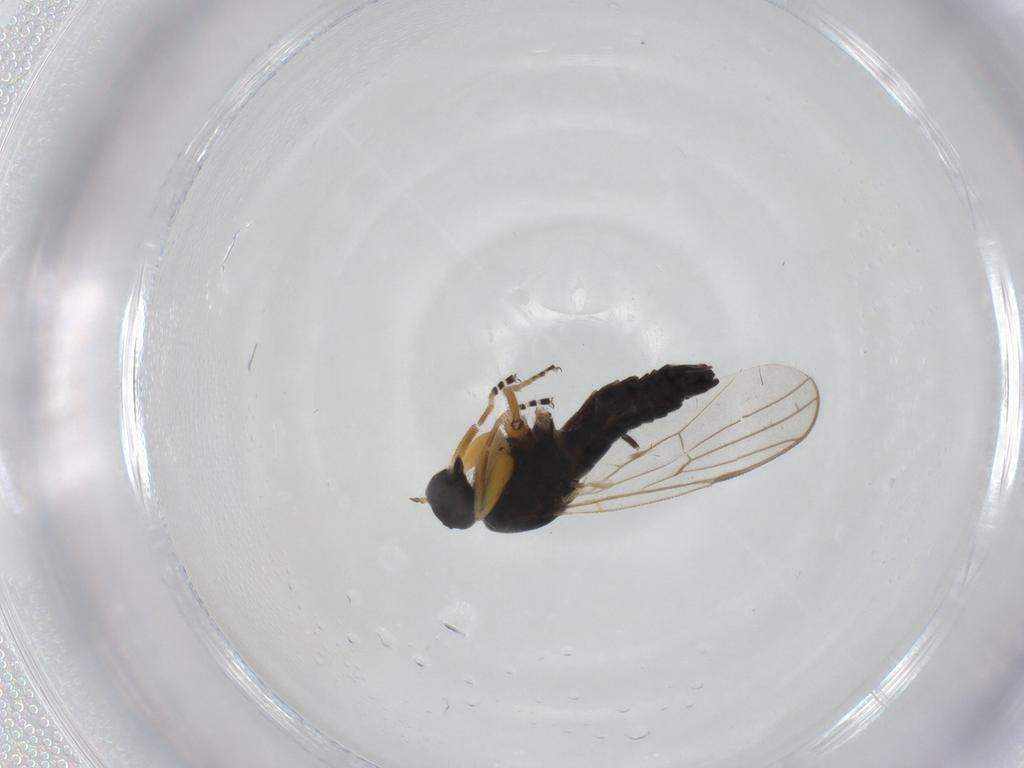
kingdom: Animalia
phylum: Arthropoda
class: Insecta
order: Diptera
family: Hybotidae
